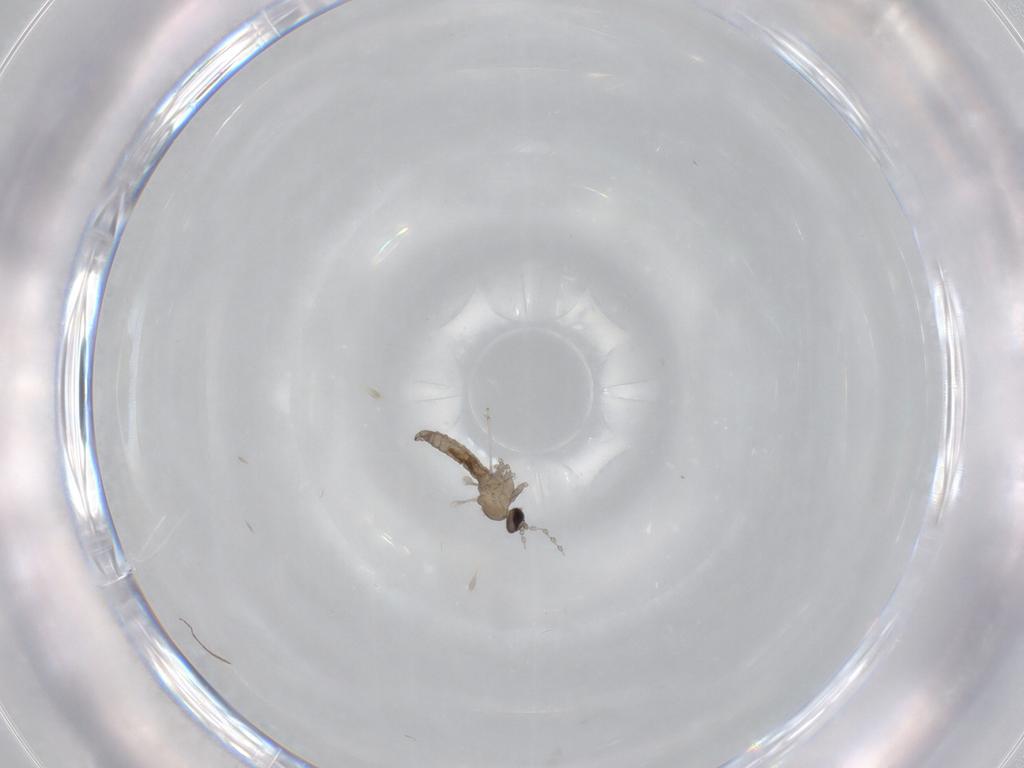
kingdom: Animalia
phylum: Arthropoda
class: Insecta
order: Diptera
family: Cecidomyiidae
